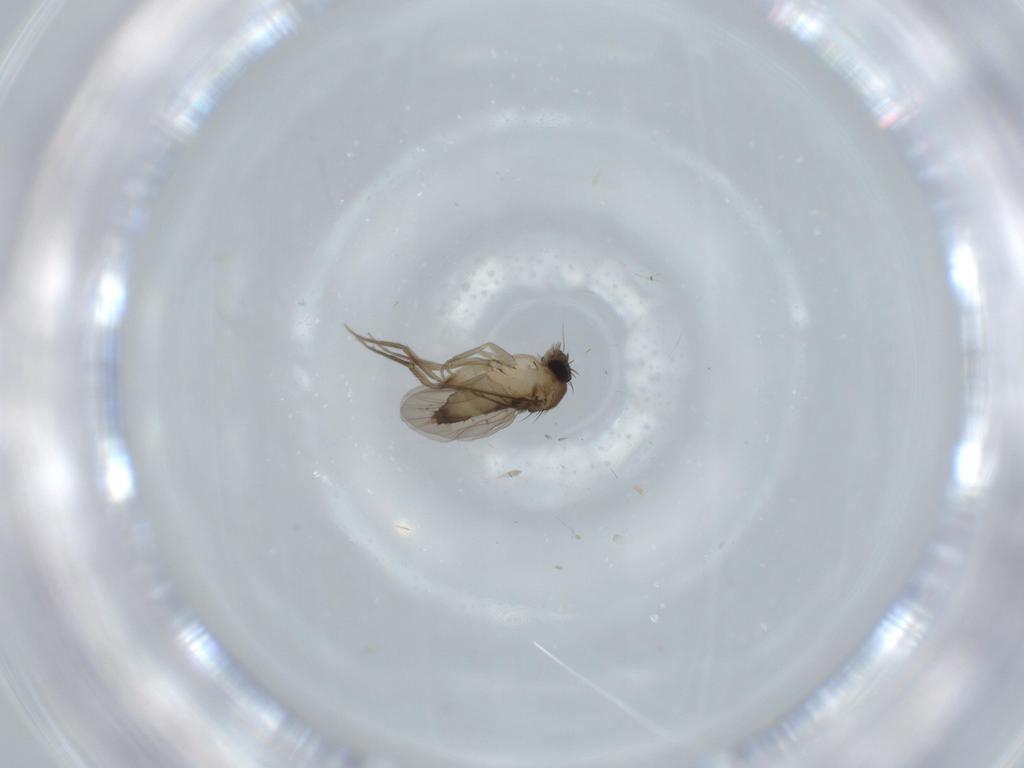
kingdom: Animalia
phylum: Arthropoda
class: Insecta
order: Diptera
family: Phoridae
